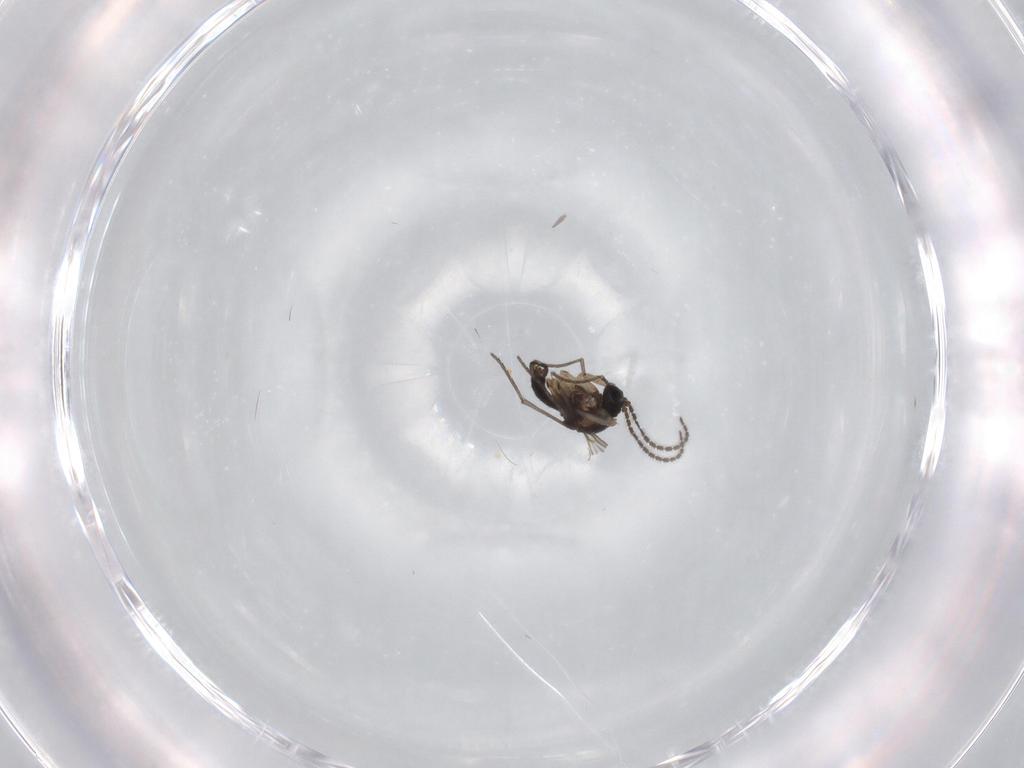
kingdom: Animalia
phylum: Arthropoda
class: Insecta
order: Diptera
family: Sciaridae
